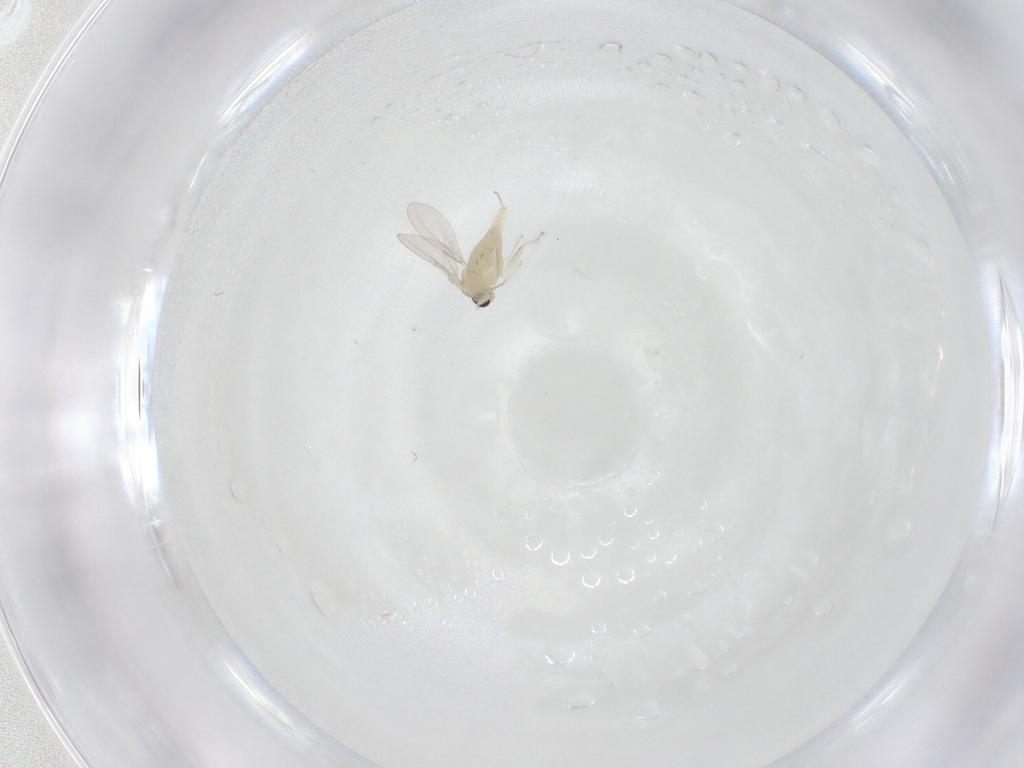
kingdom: Animalia
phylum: Arthropoda
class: Insecta
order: Diptera
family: Cecidomyiidae
